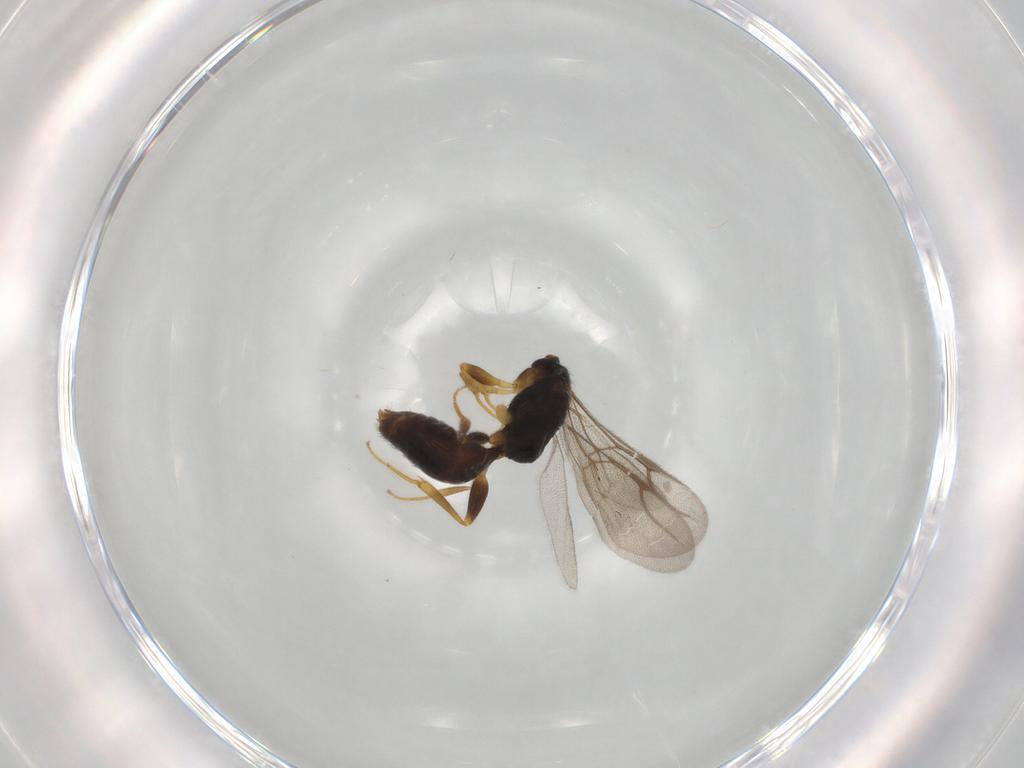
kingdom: Animalia
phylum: Arthropoda
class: Insecta
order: Hymenoptera
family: Bethylidae
